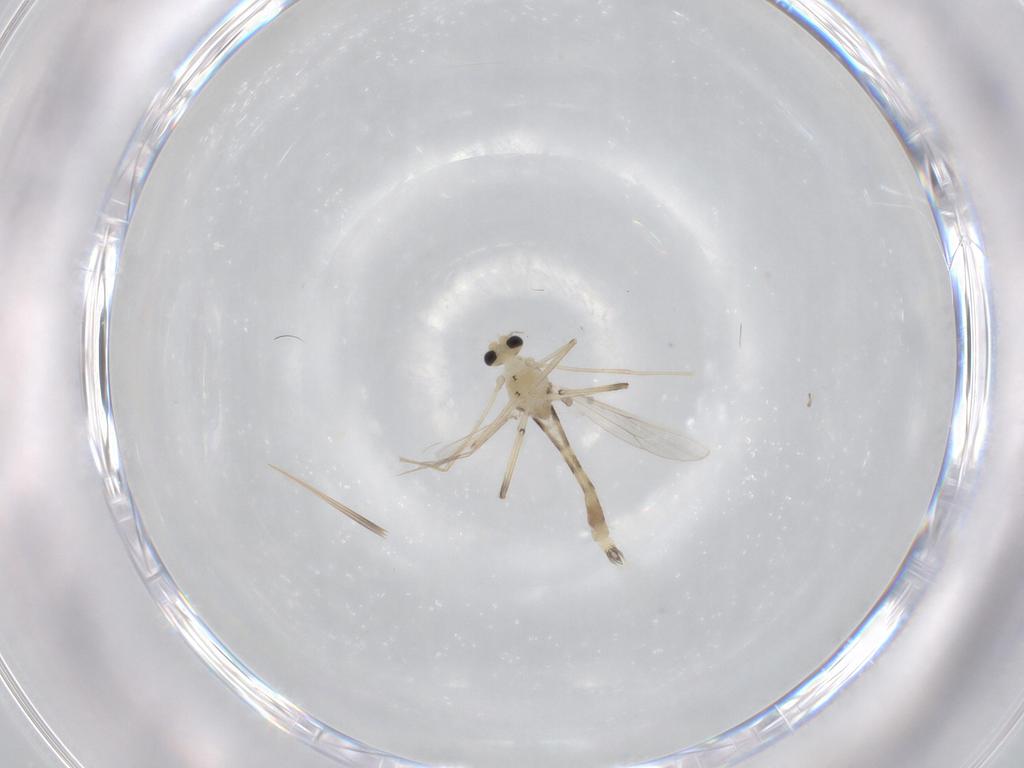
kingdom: Animalia
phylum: Arthropoda
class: Insecta
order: Diptera
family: Chironomidae
